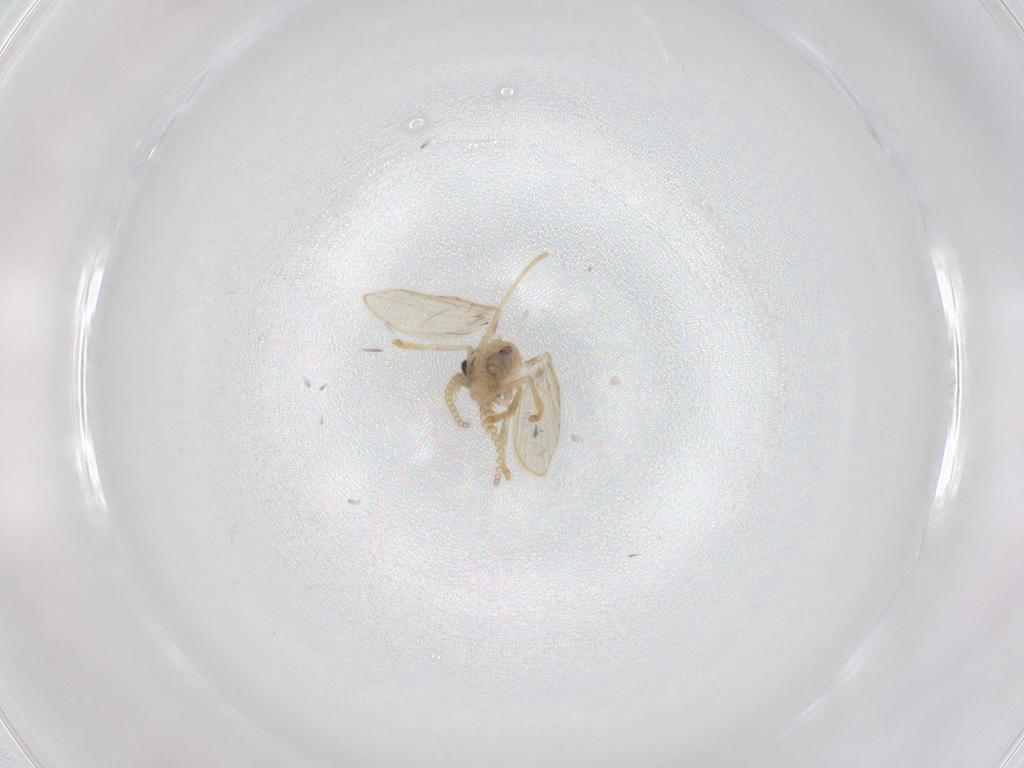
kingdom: Animalia
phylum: Arthropoda
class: Insecta
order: Diptera
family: Psychodidae
